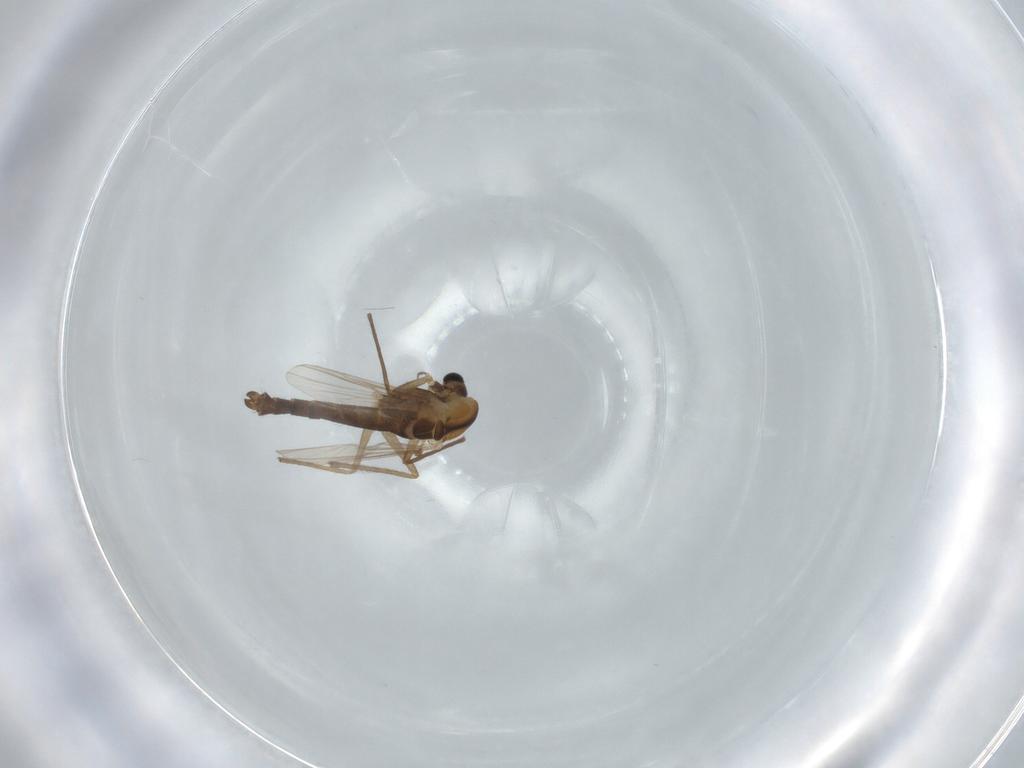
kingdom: Animalia
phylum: Arthropoda
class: Insecta
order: Diptera
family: Chironomidae
